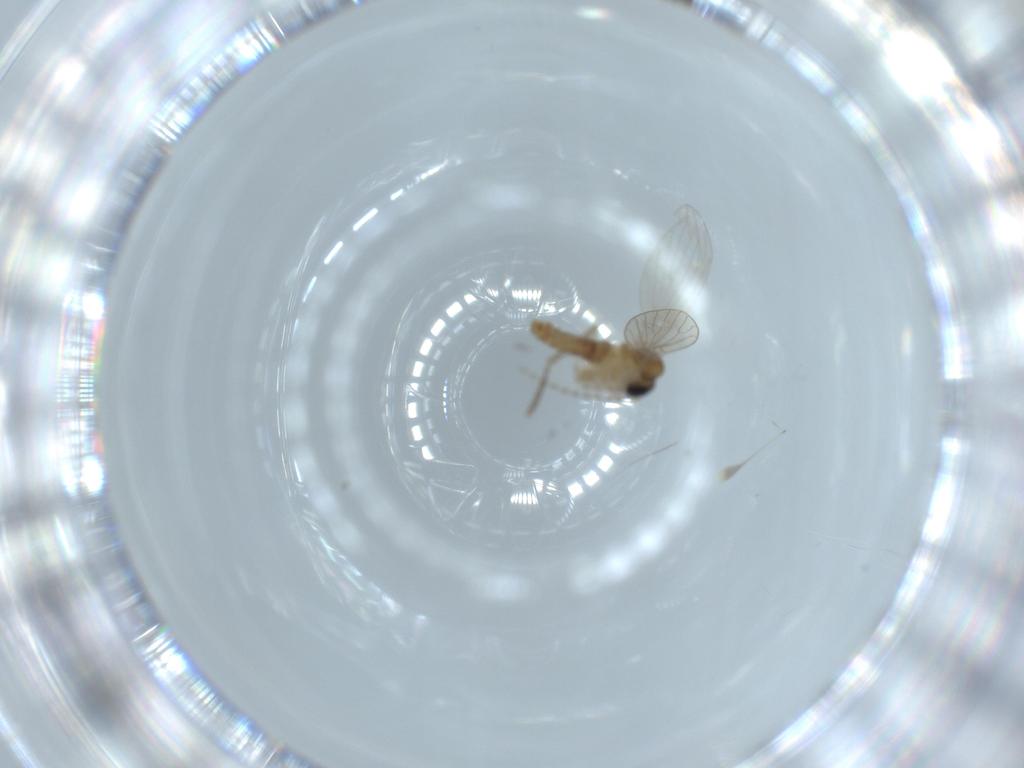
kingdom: Animalia
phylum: Arthropoda
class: Insecta
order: Diptera
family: Psychodidae
